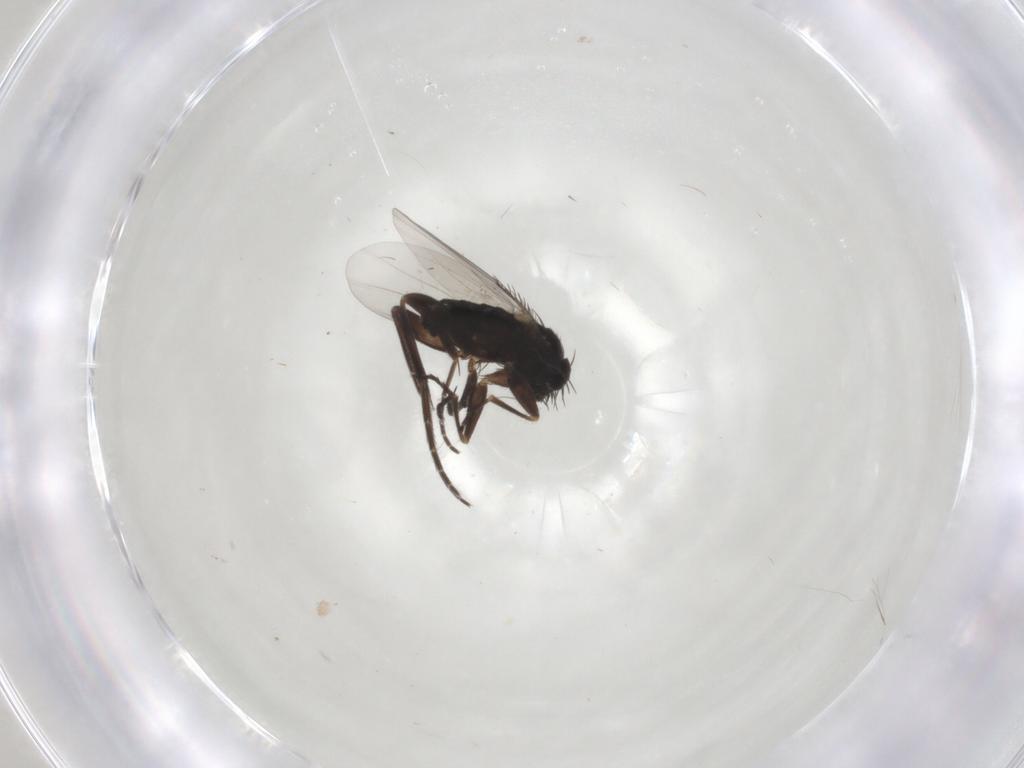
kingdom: Animalia
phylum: Arthropoda
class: Insecta
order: Diptera
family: Phoridae
